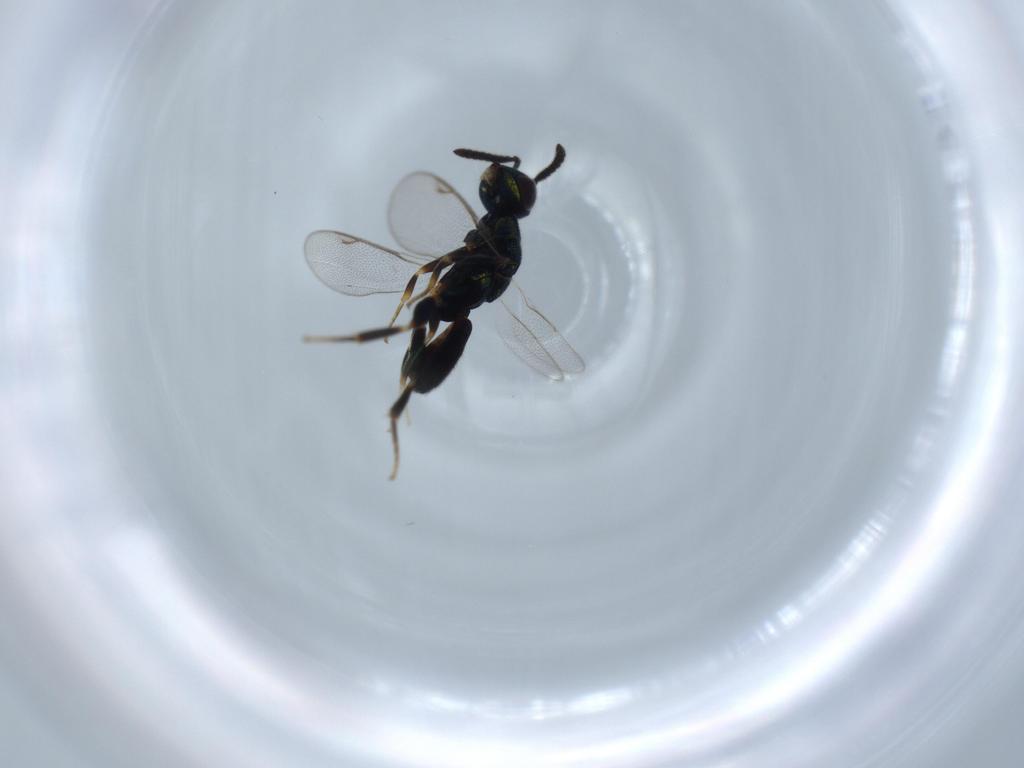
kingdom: Animalia
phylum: Arthropoda
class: Insecta
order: Hymenoptera
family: Cleonyminae
